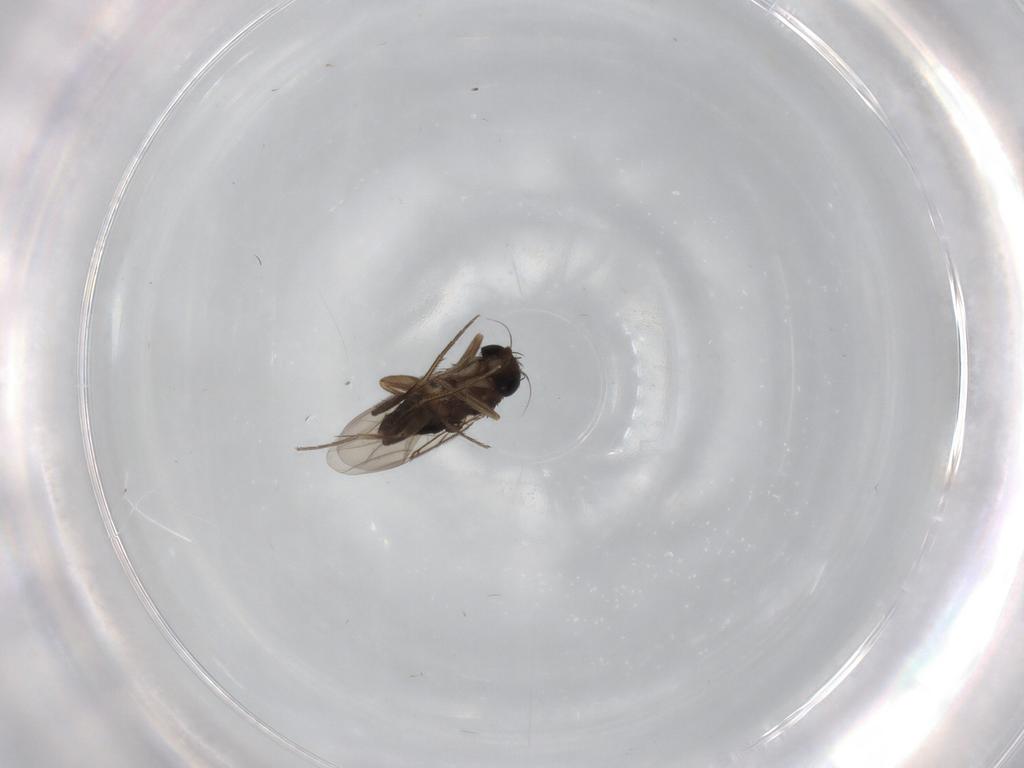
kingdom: Animalia
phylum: Arthropoda
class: Insecta
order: Diptera
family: Phoridae
